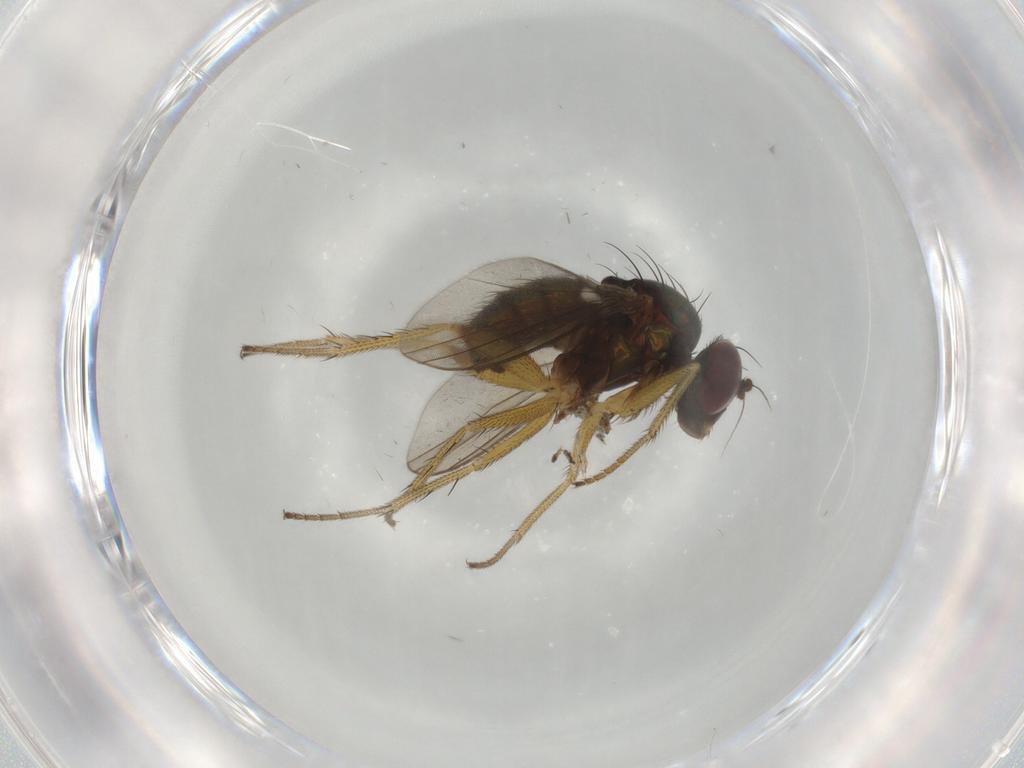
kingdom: Animalia
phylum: Arthropoda
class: Insecta
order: Diptera
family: Dolichopodidae
